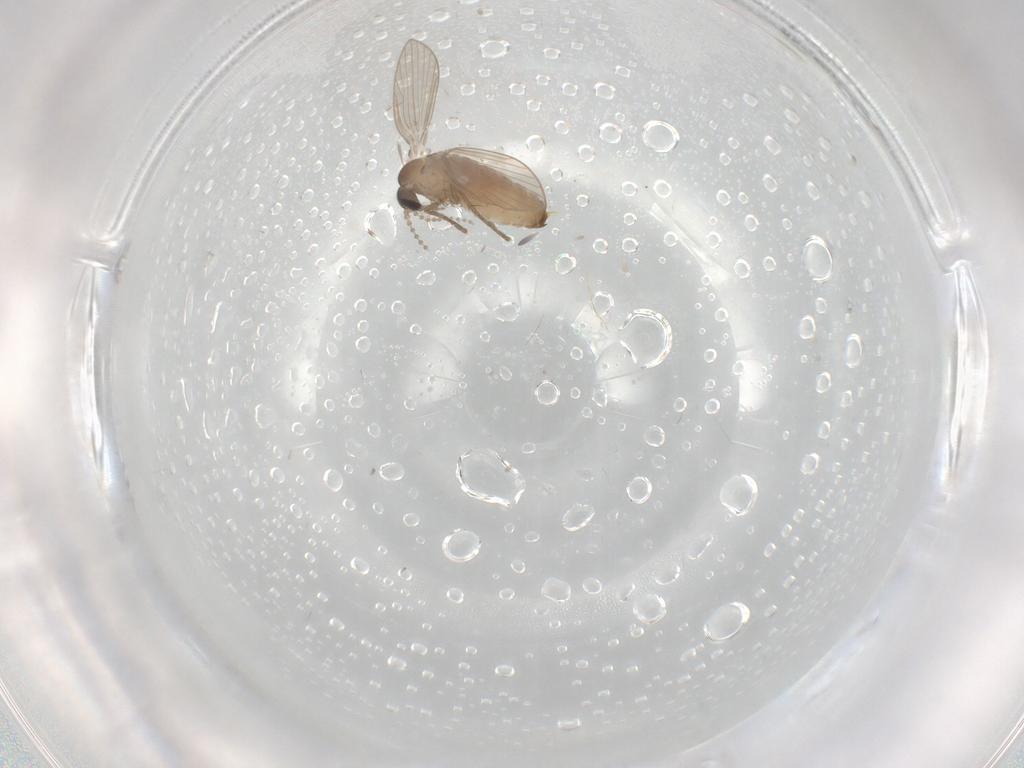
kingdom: Animalia
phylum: Arthropoda
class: Insecta
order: Diptera
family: Psychodidae
